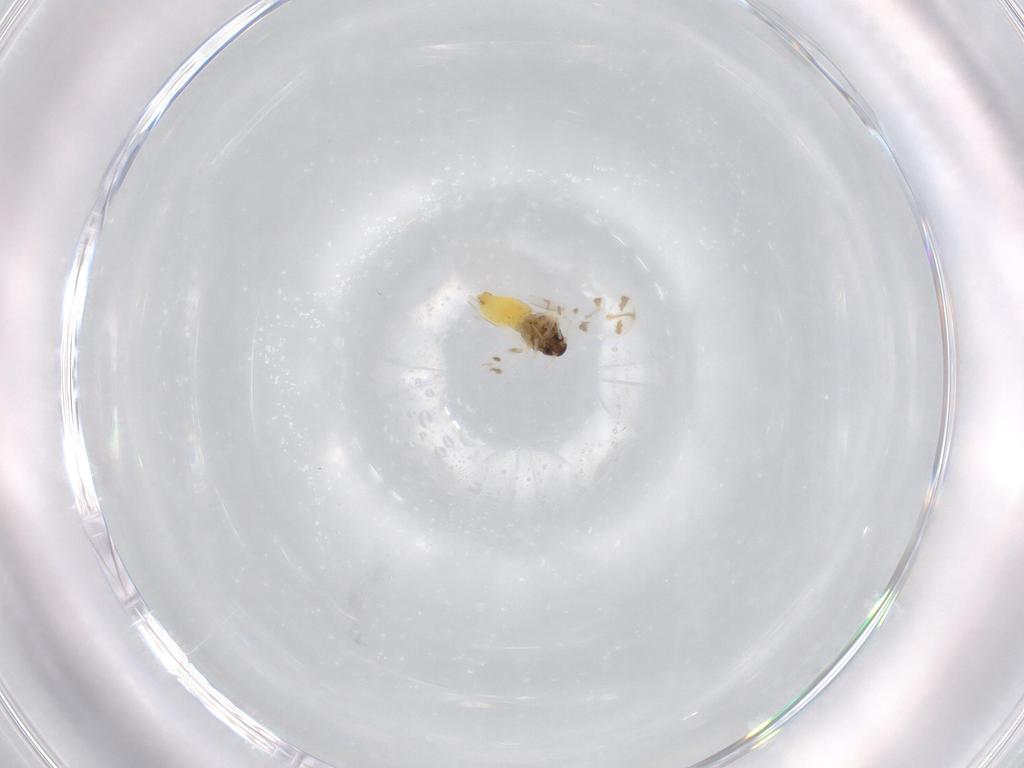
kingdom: Animalia
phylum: Arthropoda
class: Insecta
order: Hemiptera
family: Aleyrodidae
